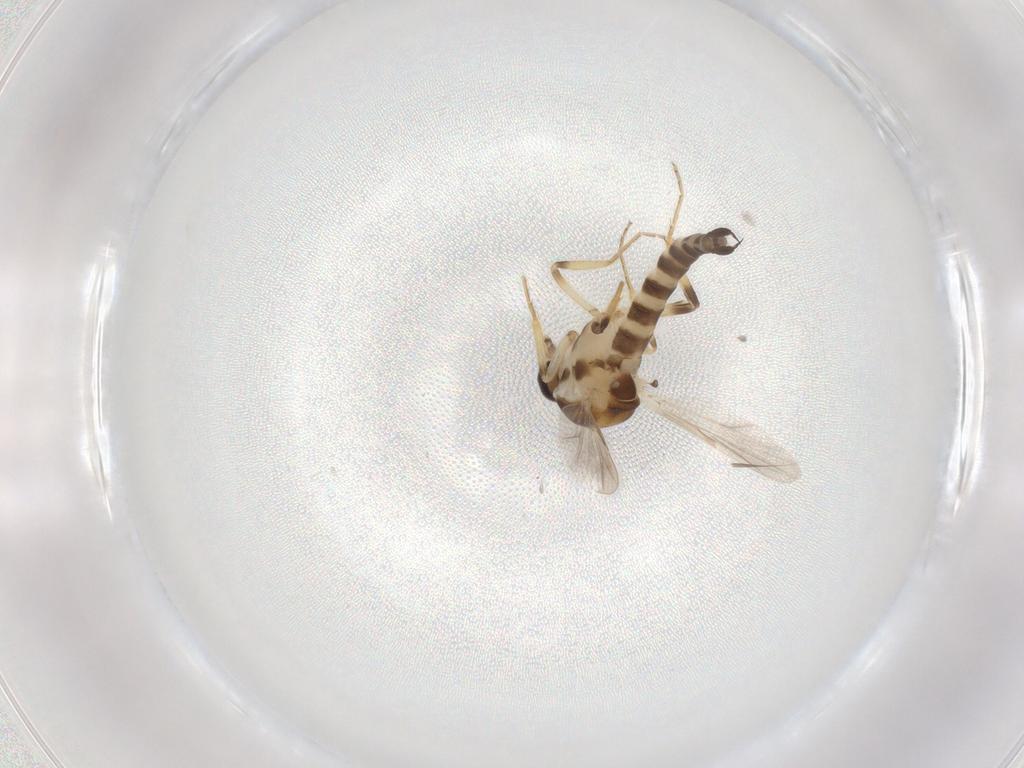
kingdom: Animalia
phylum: Arthropoda
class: Insecta
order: Diptera
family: Ceratopogonidae
